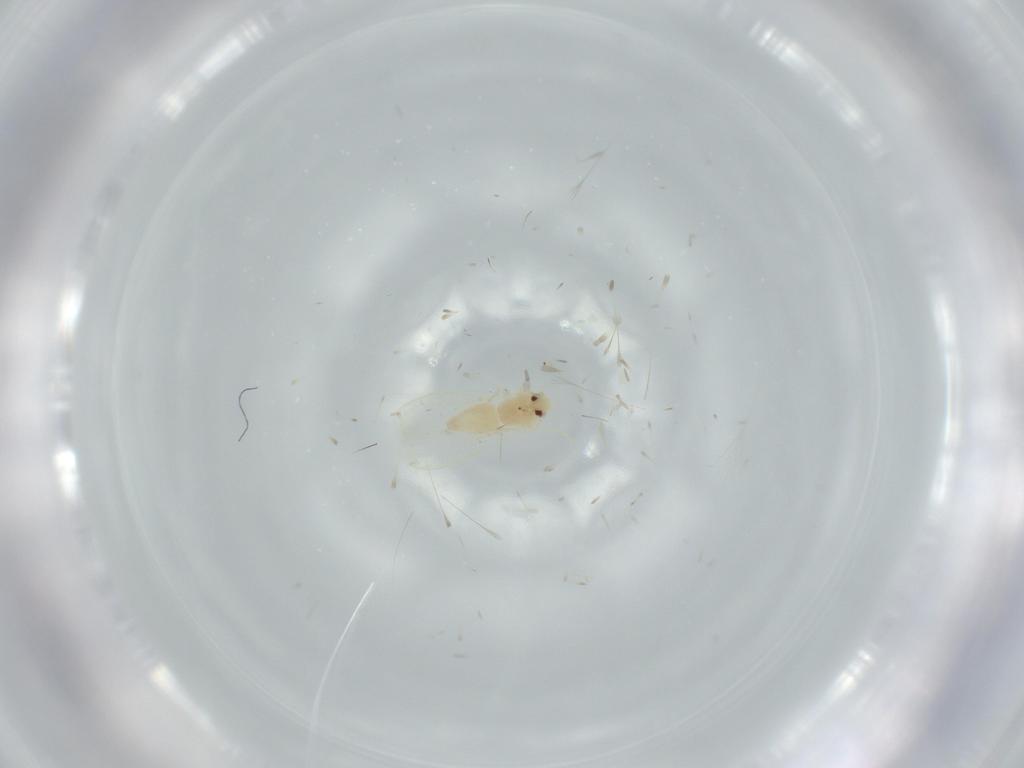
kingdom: Animalia
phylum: Arthropoda
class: Insecta
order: Hemiptera
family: Aleyrodidae
